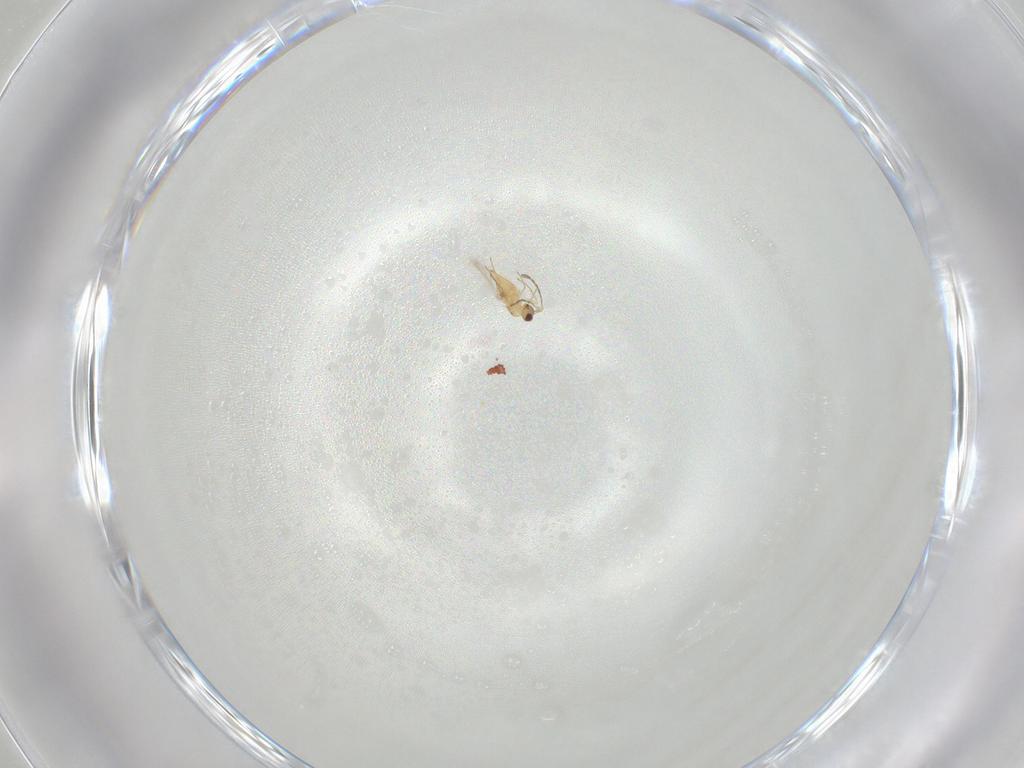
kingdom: Animalia
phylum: Arthropoda
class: Insecta
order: Hymenoptera
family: Mymaridae
